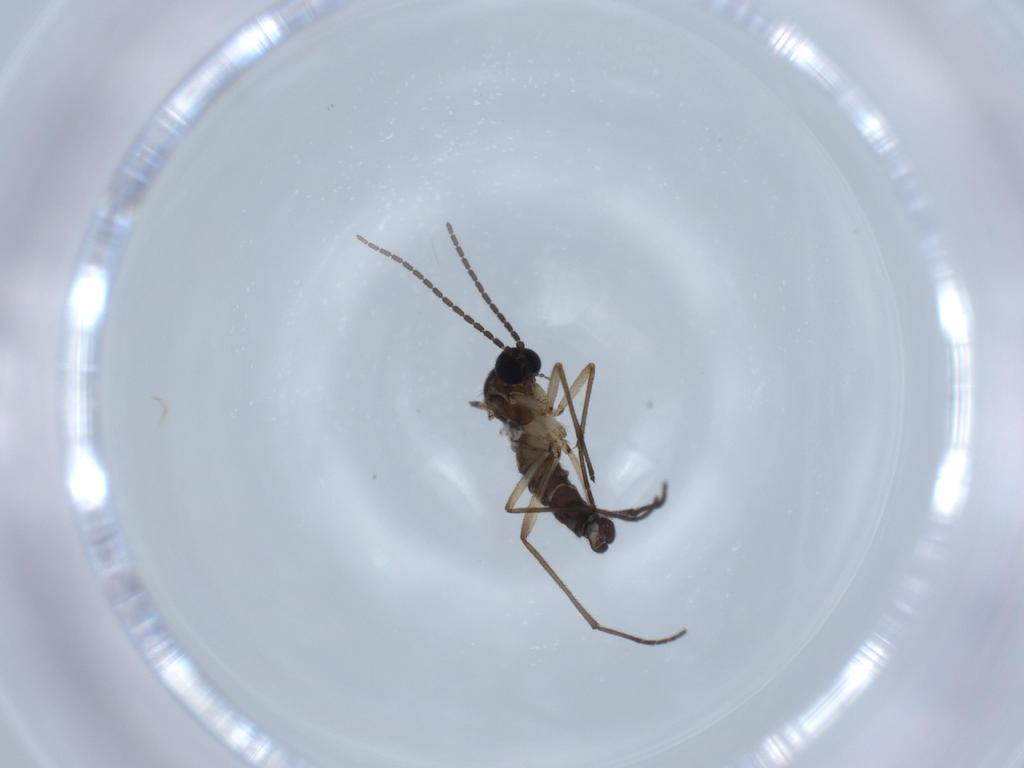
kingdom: Animalia
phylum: Arthropoda
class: Insecta
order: Diptera
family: Sciaridae
